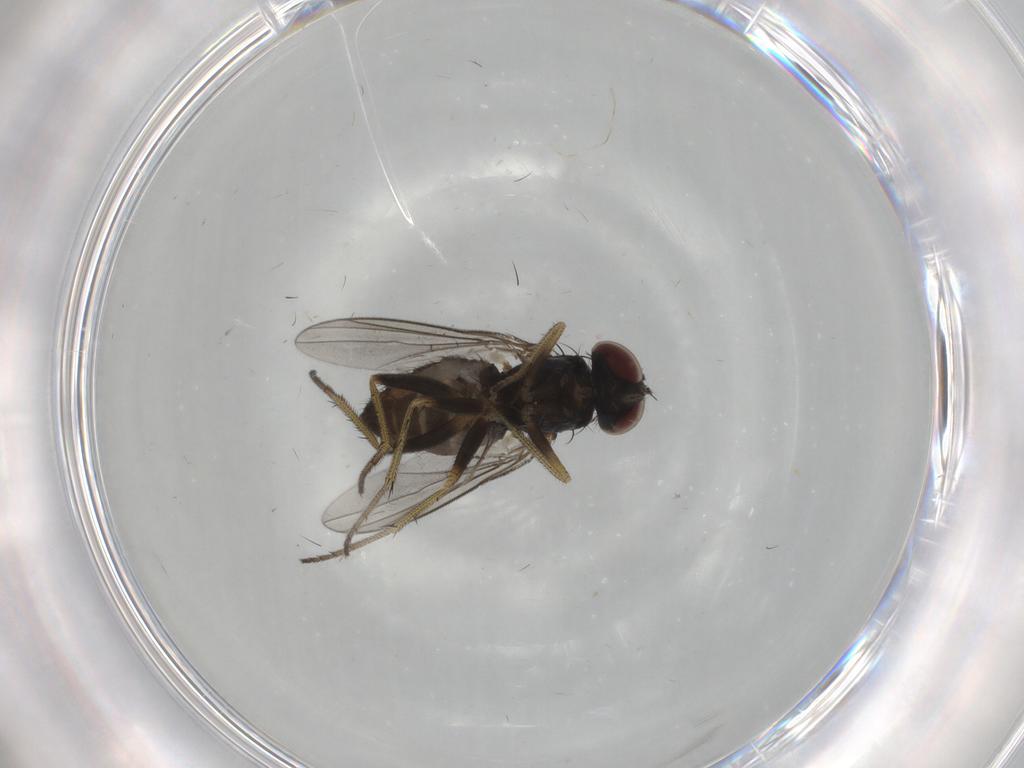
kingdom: Animalia
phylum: Arthropoda
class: Insecta
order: Diptera
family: Dolichopodidae
